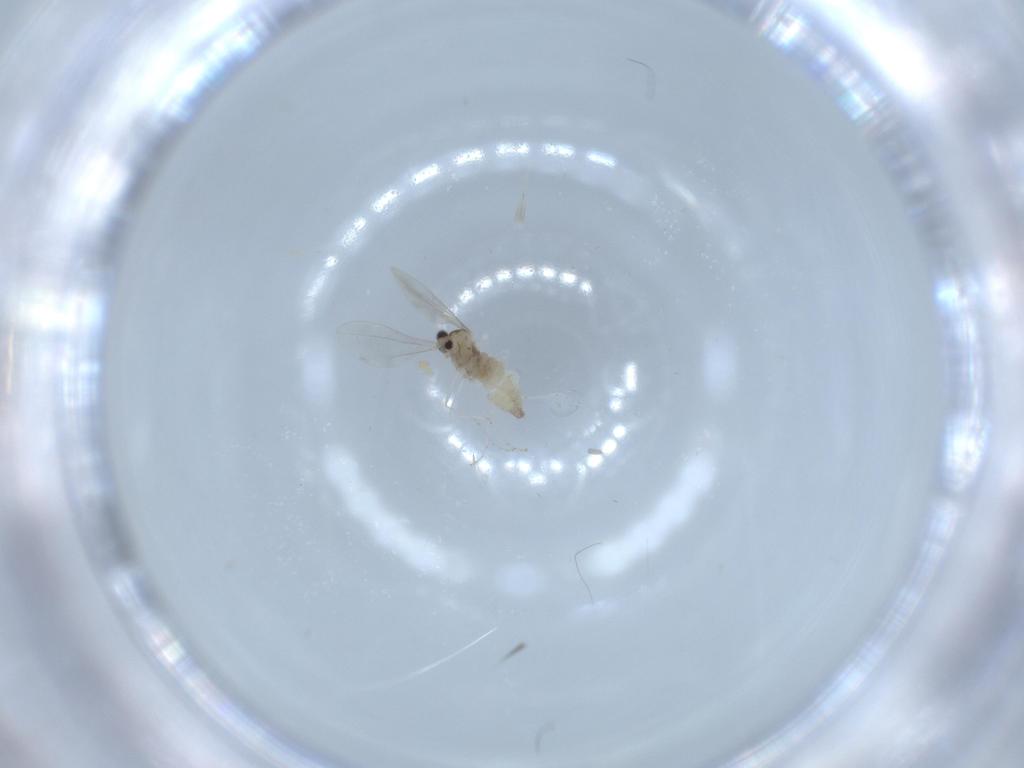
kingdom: Animalia
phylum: Arthropoda
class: Insecta
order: Diptera
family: Cecidomyiidae
